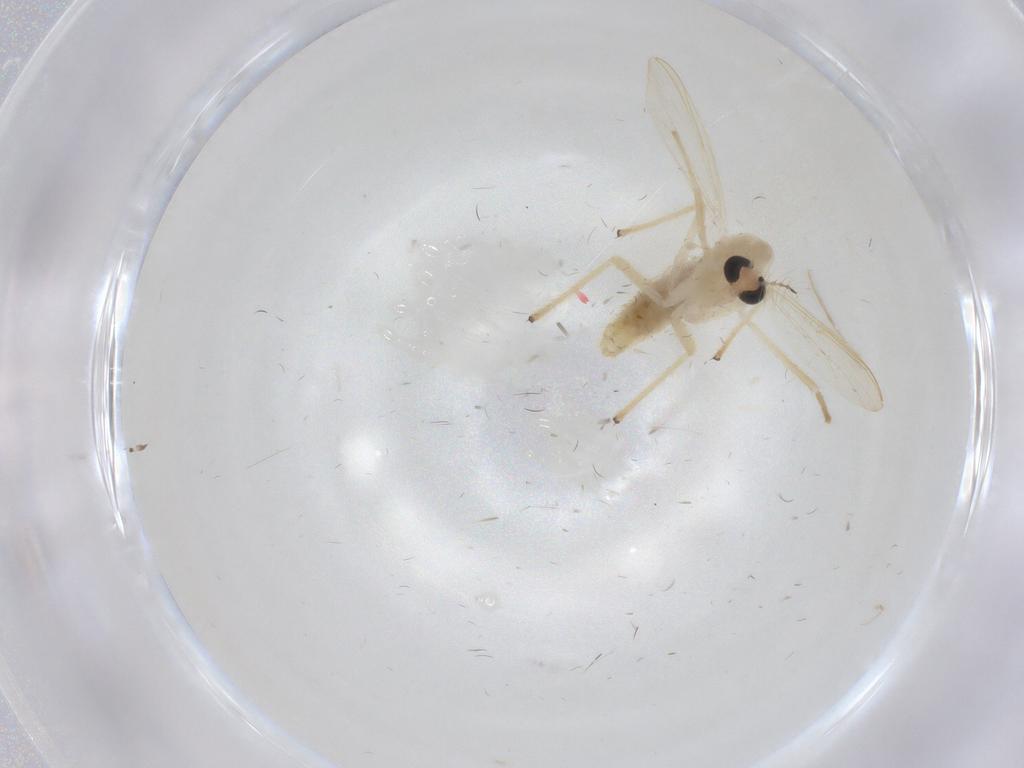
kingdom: Animalia
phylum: Arthropoda
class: Insecta
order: Diptera
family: Chironomidae
